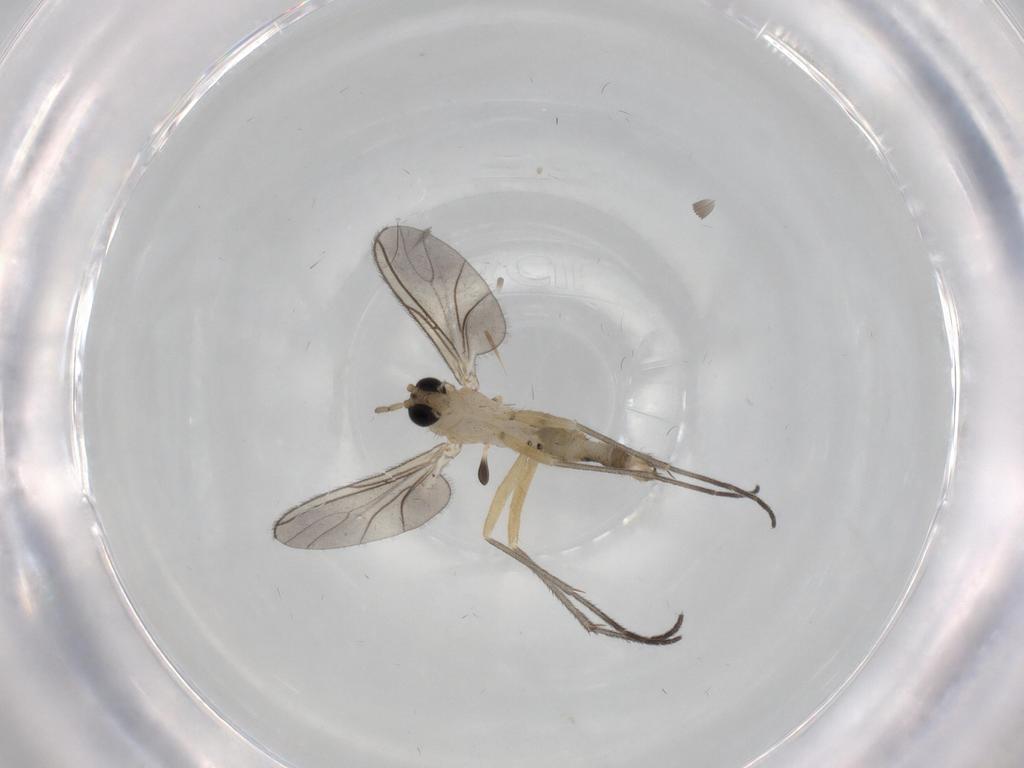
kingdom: Animalia
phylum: Arthropoda
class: Insecta
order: Diptera
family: Sciaridae
